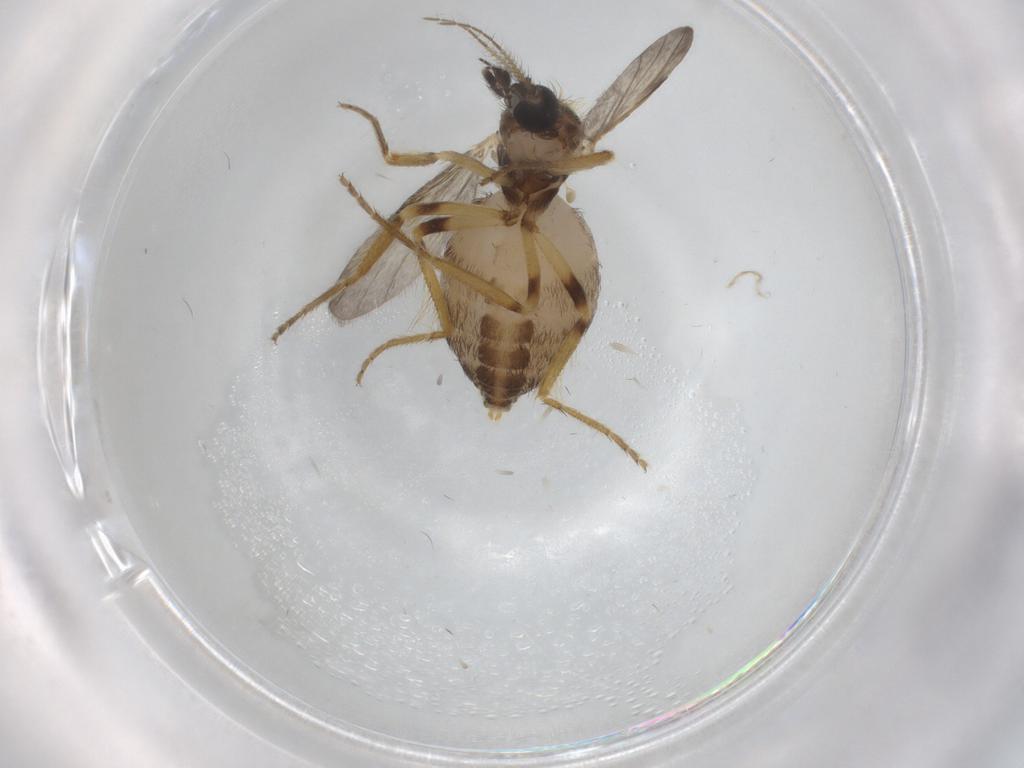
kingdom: Animalia
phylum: Arthropoda
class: Insecta
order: Diptera
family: Ceratopogonidae
